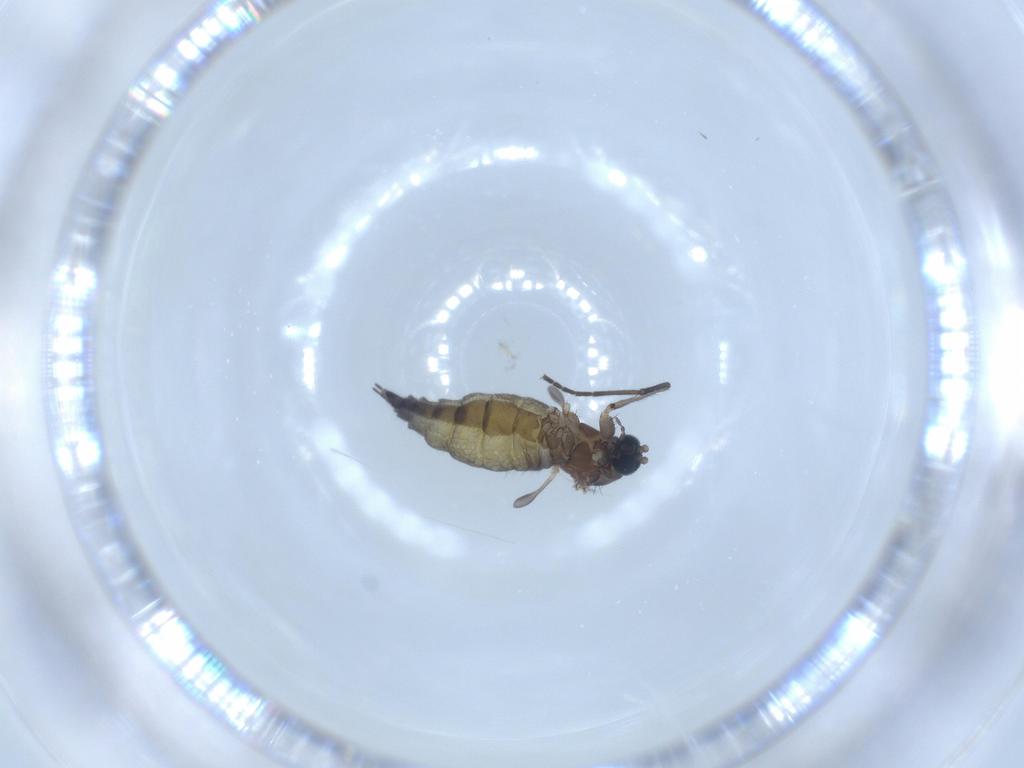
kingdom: Animalia
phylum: Arthropoda
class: Insecta
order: Diptera
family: Sciaridae
